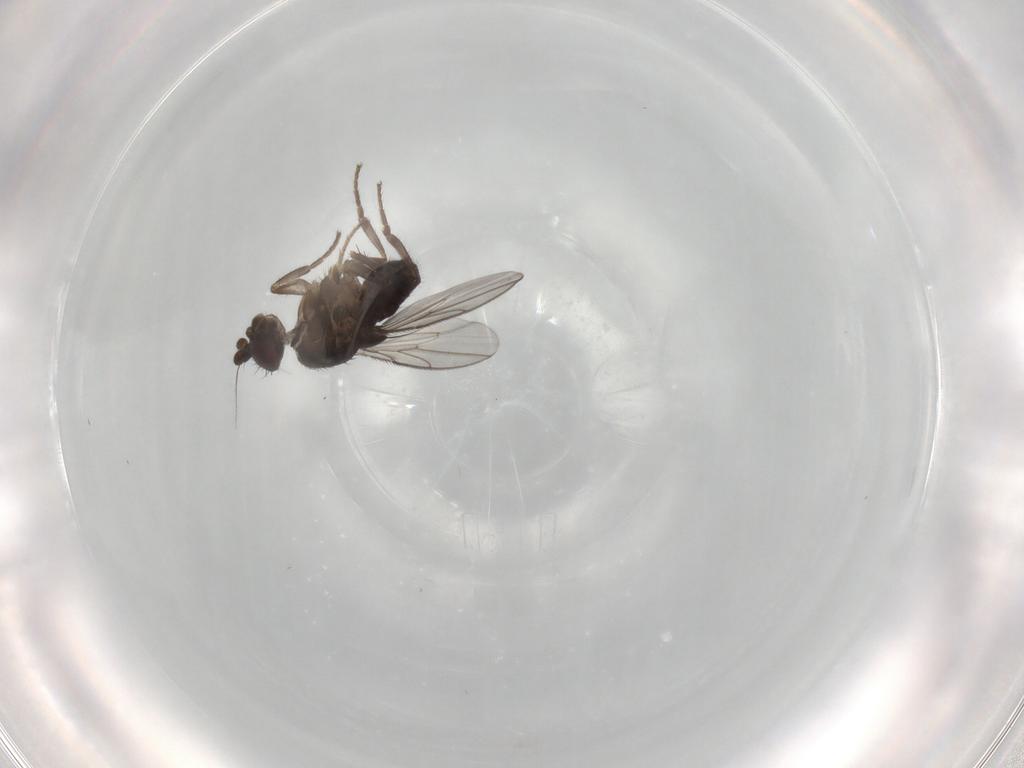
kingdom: Animalia
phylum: Arthropoda
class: Insecta
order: Diptera
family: Sphaeroceridae
